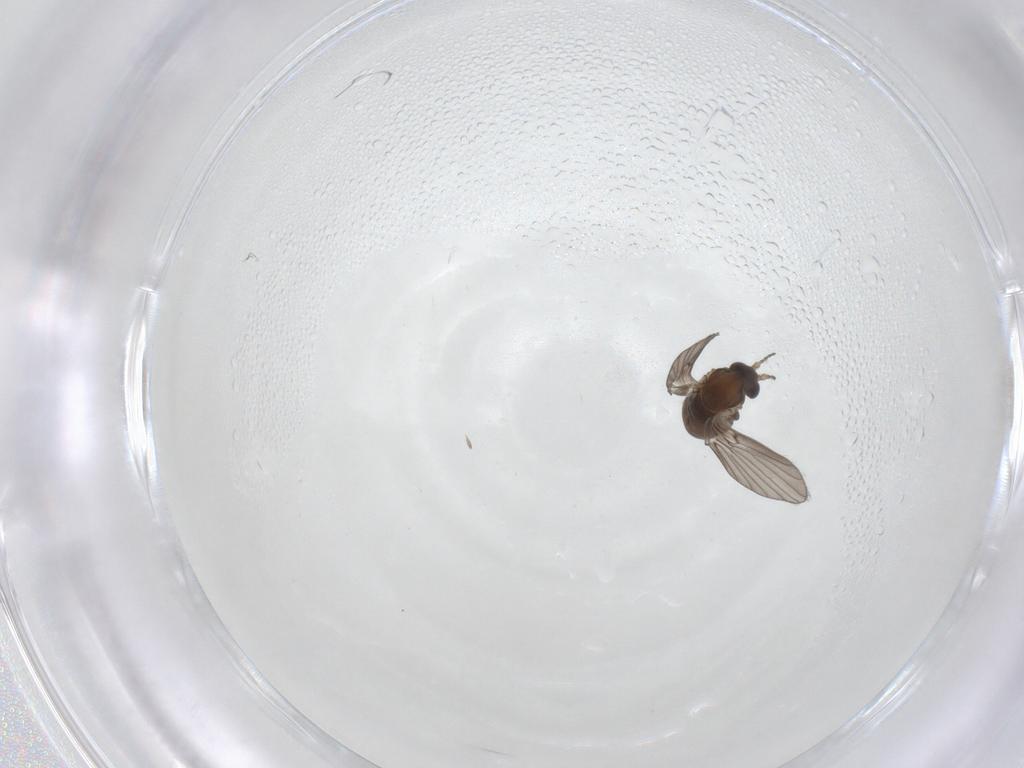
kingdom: Animalia
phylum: Arthropoda
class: Insecta
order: Diptera
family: Psychodidae
